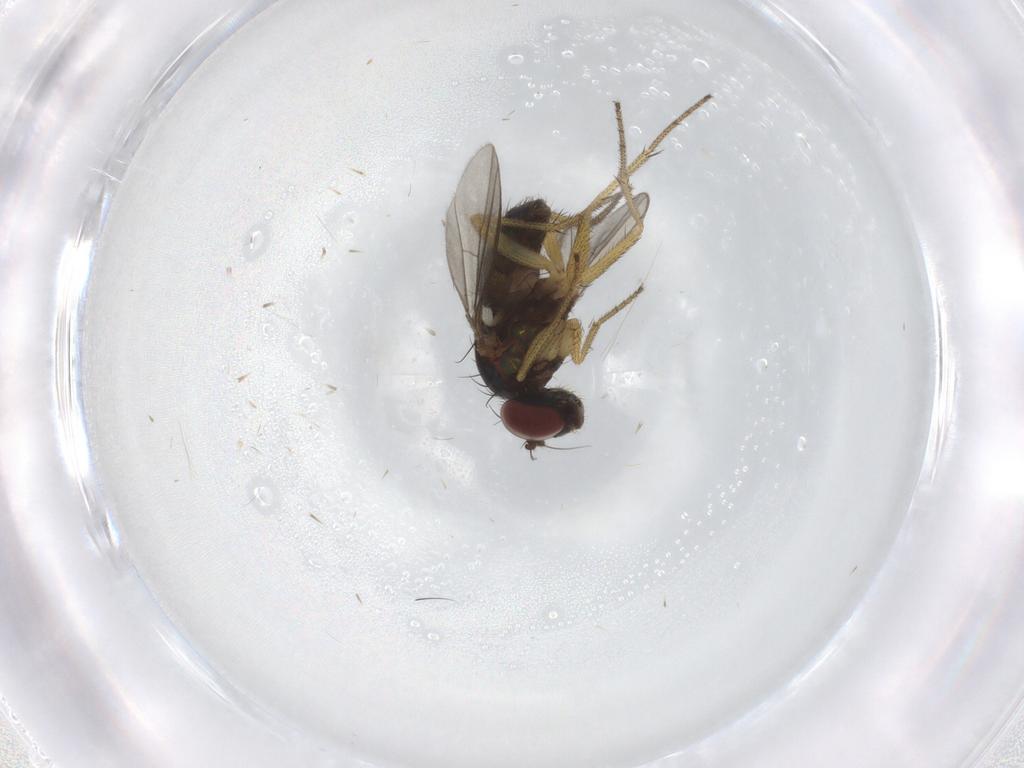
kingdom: Animalia
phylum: Arthropoda
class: Insecta
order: Diptera
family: Dolichopodidae
